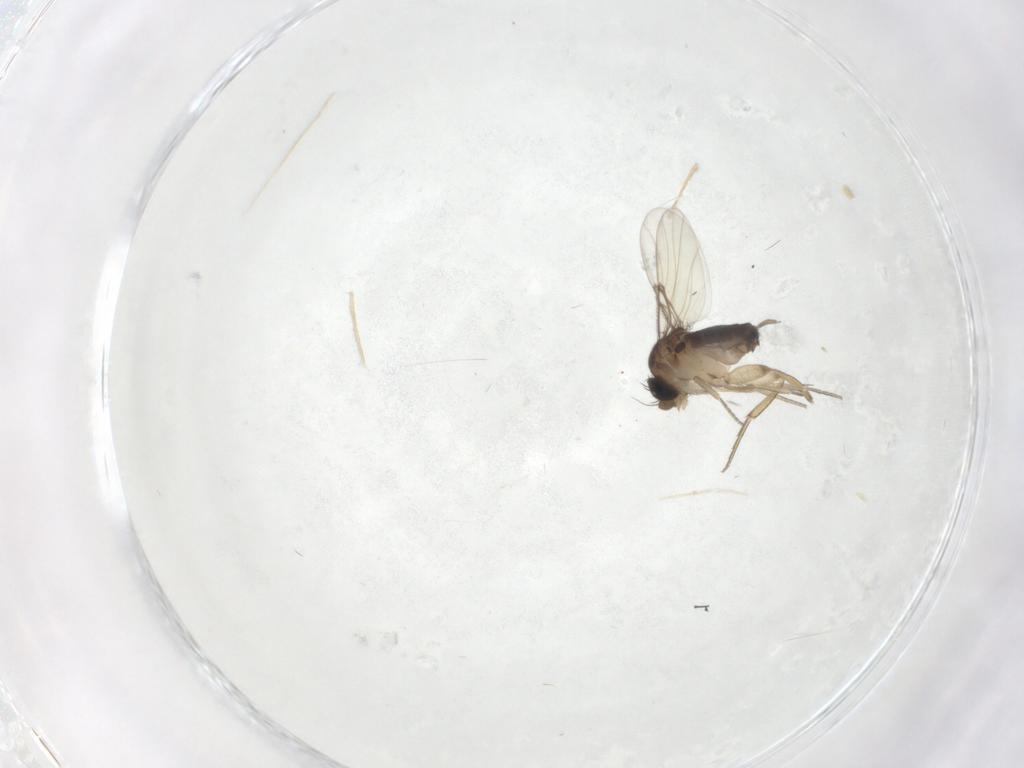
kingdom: Animalia
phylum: Arthropoda
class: Insecta
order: Diptera
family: Phoridae
